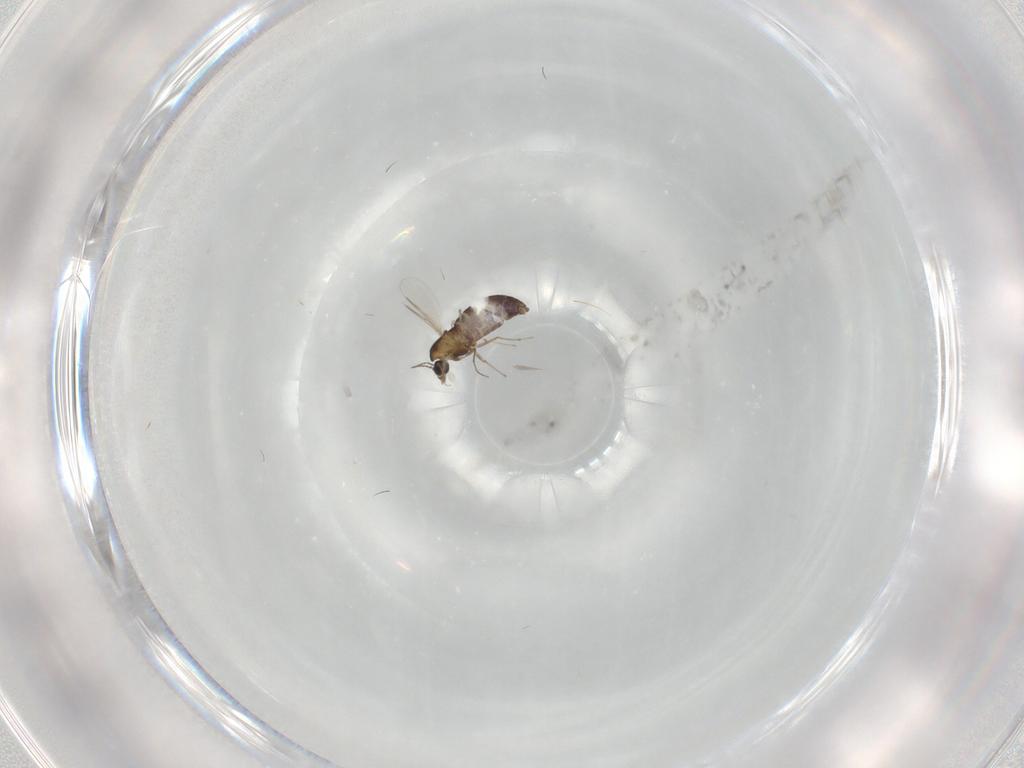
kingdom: Animalia
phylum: Arthropoda
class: Insecta
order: Diptera
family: Chironomidae
